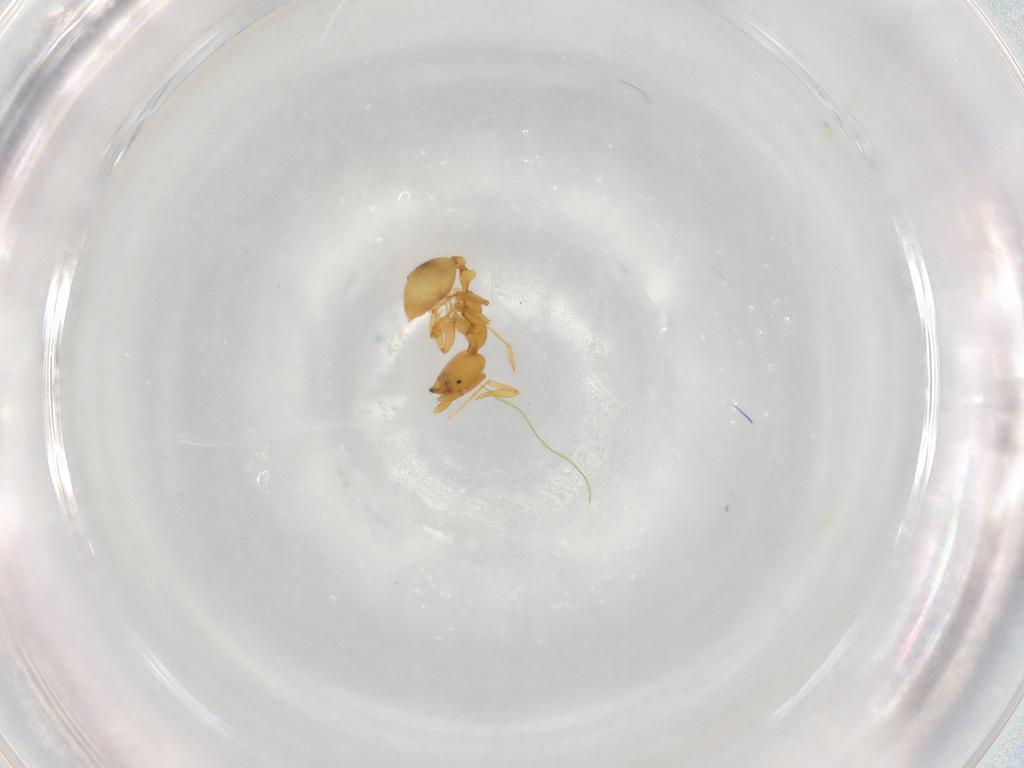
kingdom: Animalia
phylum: Arthropoda
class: Insecta
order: Hymenoptera
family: Formicidae
